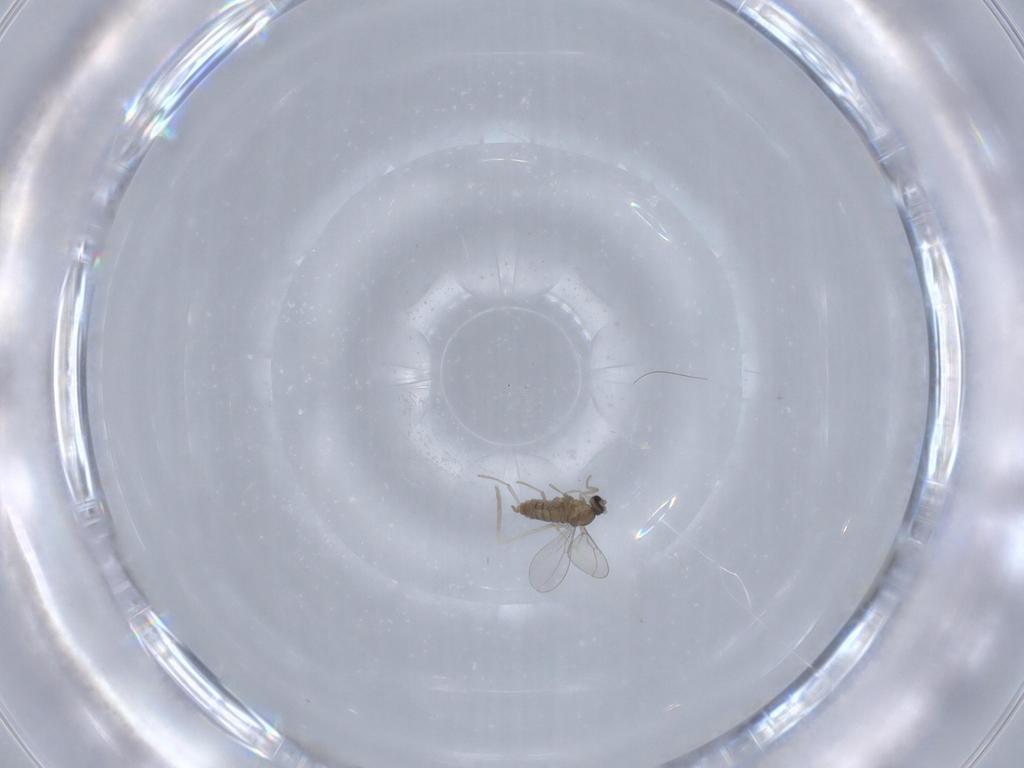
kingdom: Animalia
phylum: Arthropoda
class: Insecta
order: Diptera
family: Cecidomyiidae
